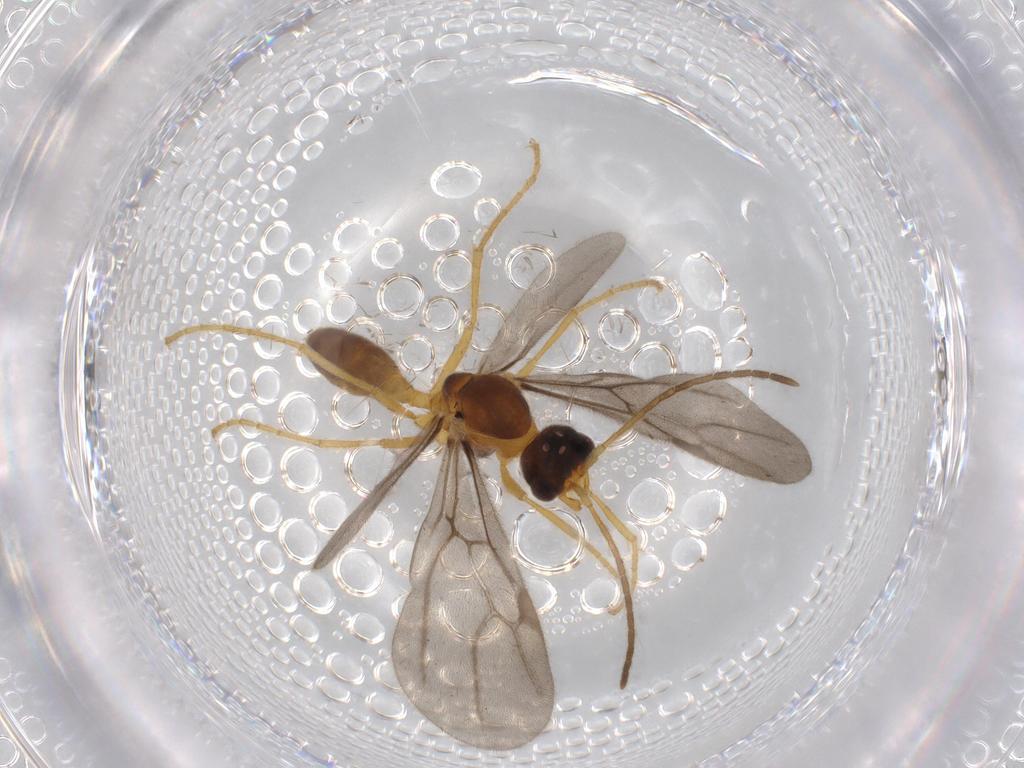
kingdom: Animalia
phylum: Arthropoda
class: Insecta
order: Hymenoptera
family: Formicidae
